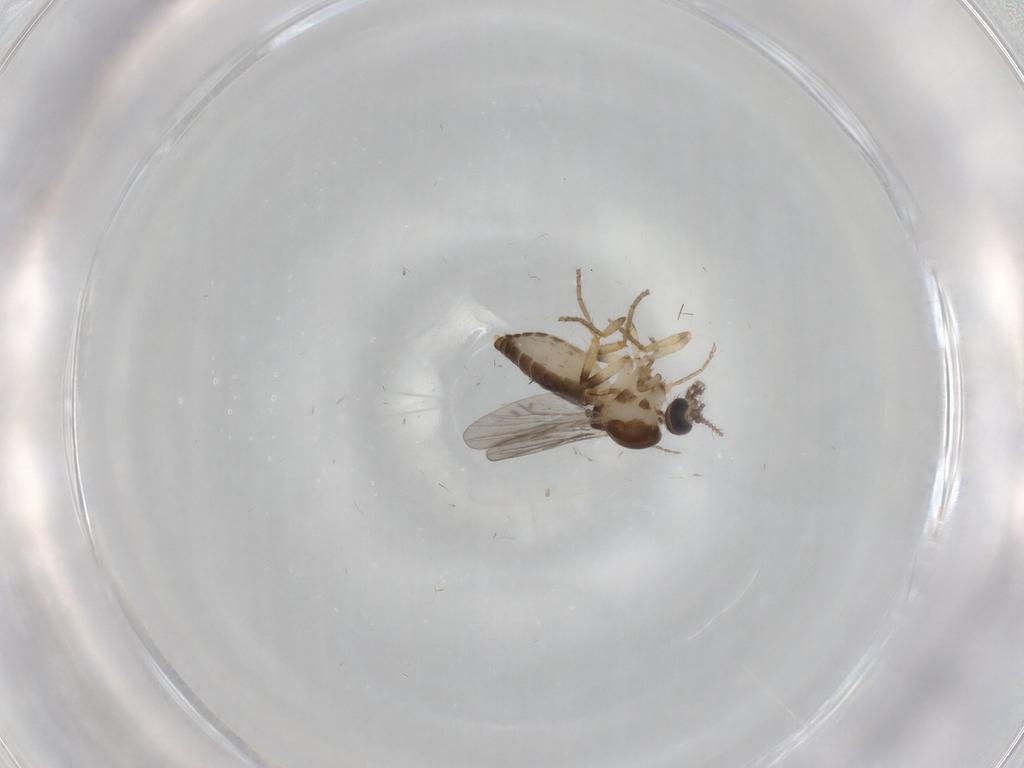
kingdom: Animalia
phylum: Arthropoda
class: Insecta
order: Diptera
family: Ceratopogonidae
